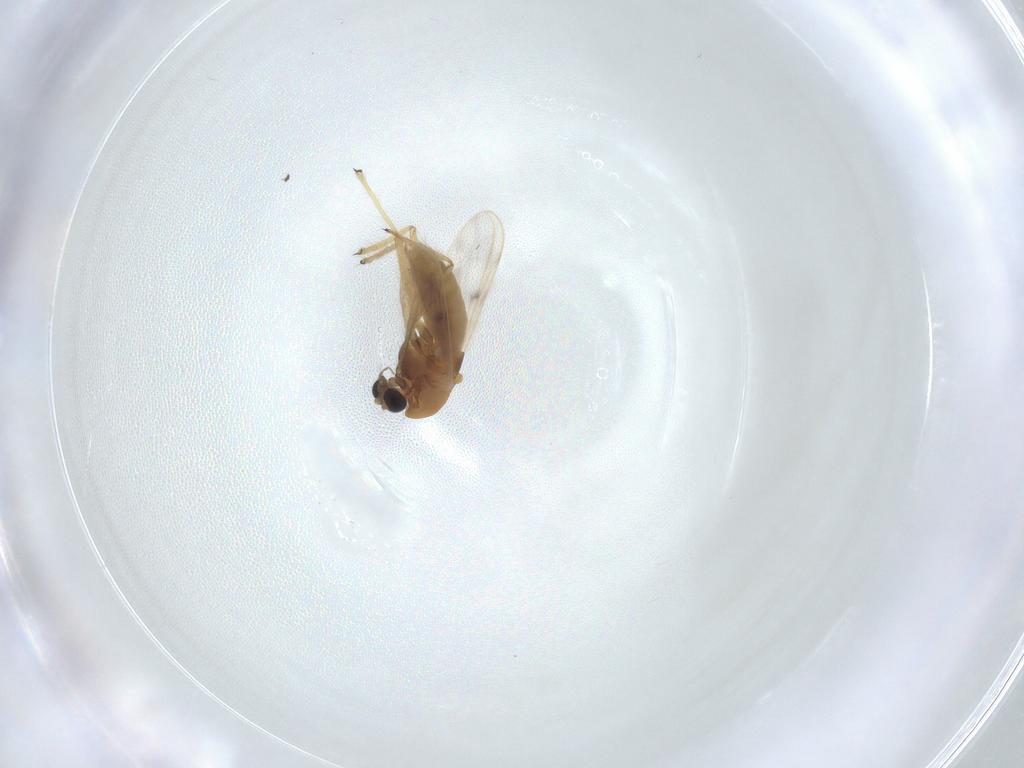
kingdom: Animalia
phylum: Arthropoda
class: Insecta
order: Diptera
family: Chironomidae
